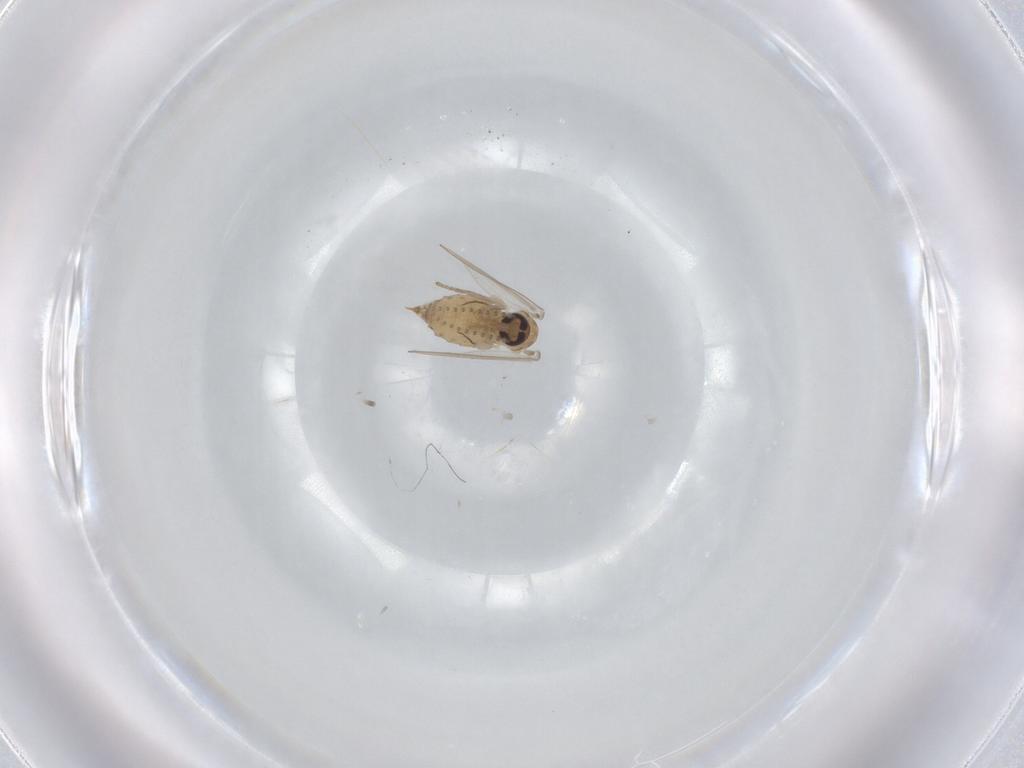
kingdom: Animalia
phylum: Arthropoda
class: Insecta
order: Diptera
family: Psychodidae
